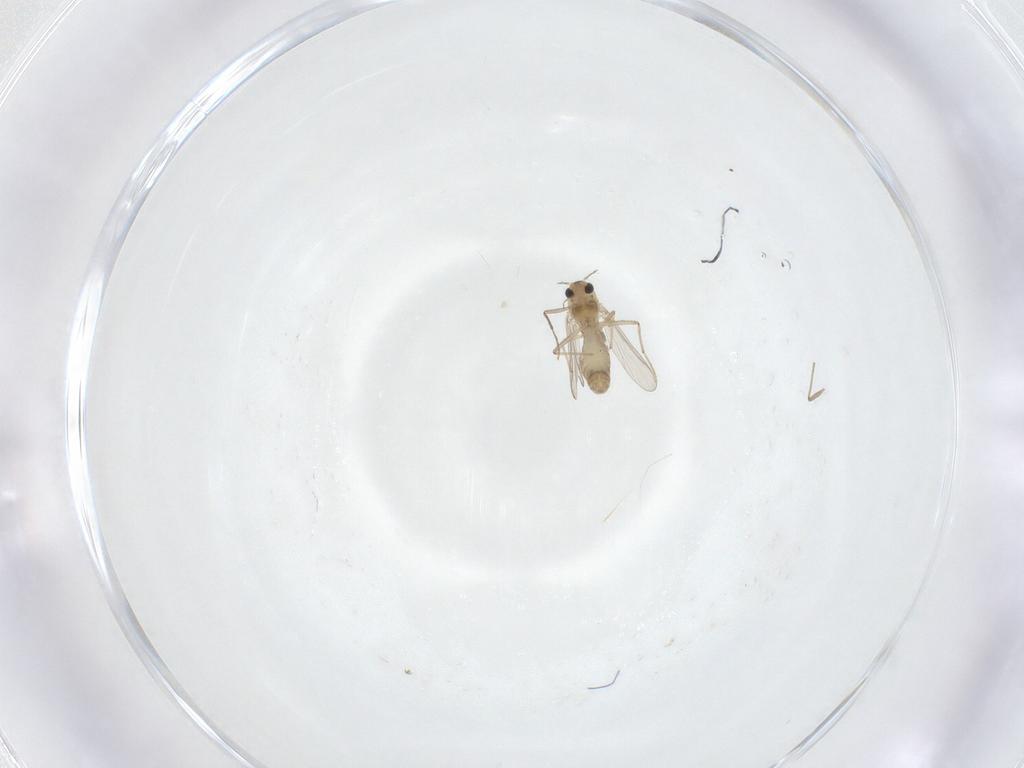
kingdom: Animalia
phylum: Arthropoda
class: Insecta
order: Diptera
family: Chironomidae
